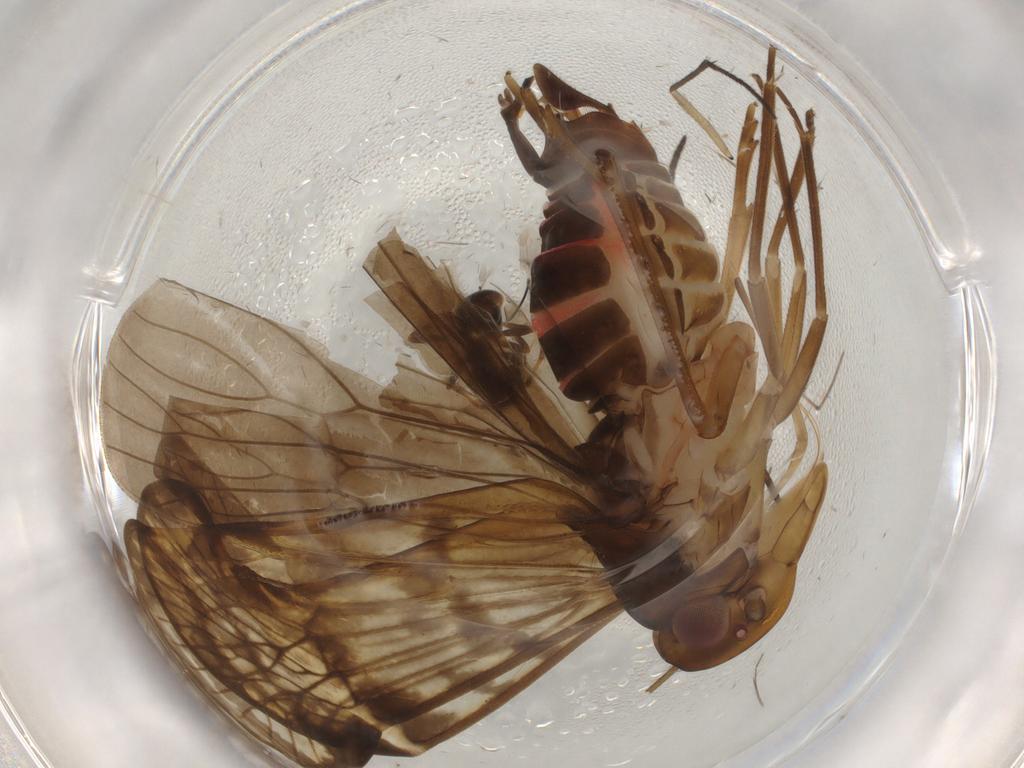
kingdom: Animalia
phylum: Arthropoda
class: Insecta
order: Diptera
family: Limoniidae
